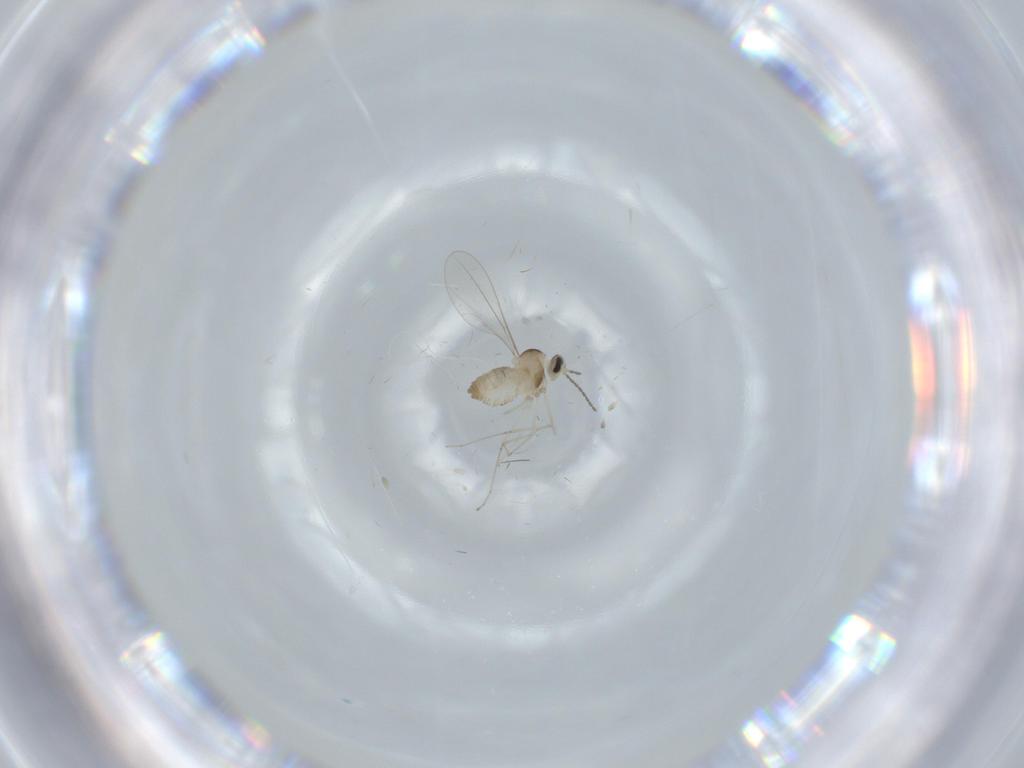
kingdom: Animalia
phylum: Arthropoda
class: Insecta
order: Diptera
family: Cecidomyiidae
